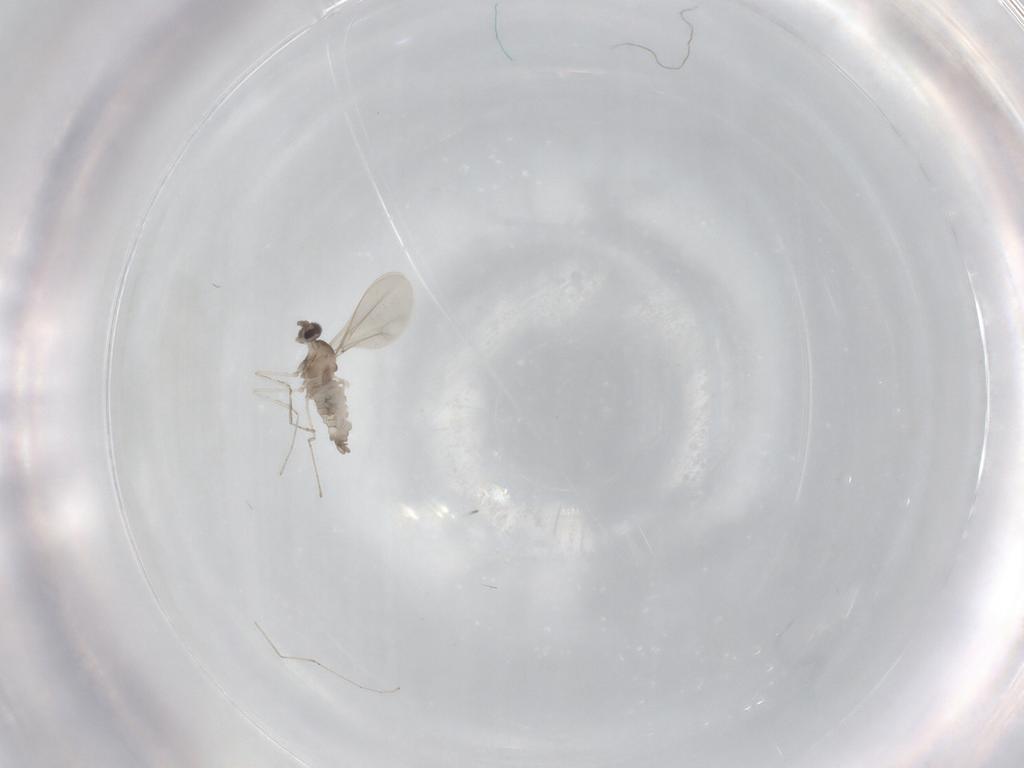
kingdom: Animalia
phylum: Arthropoda
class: Insecta
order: Diptera
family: Cecidomyiidae
